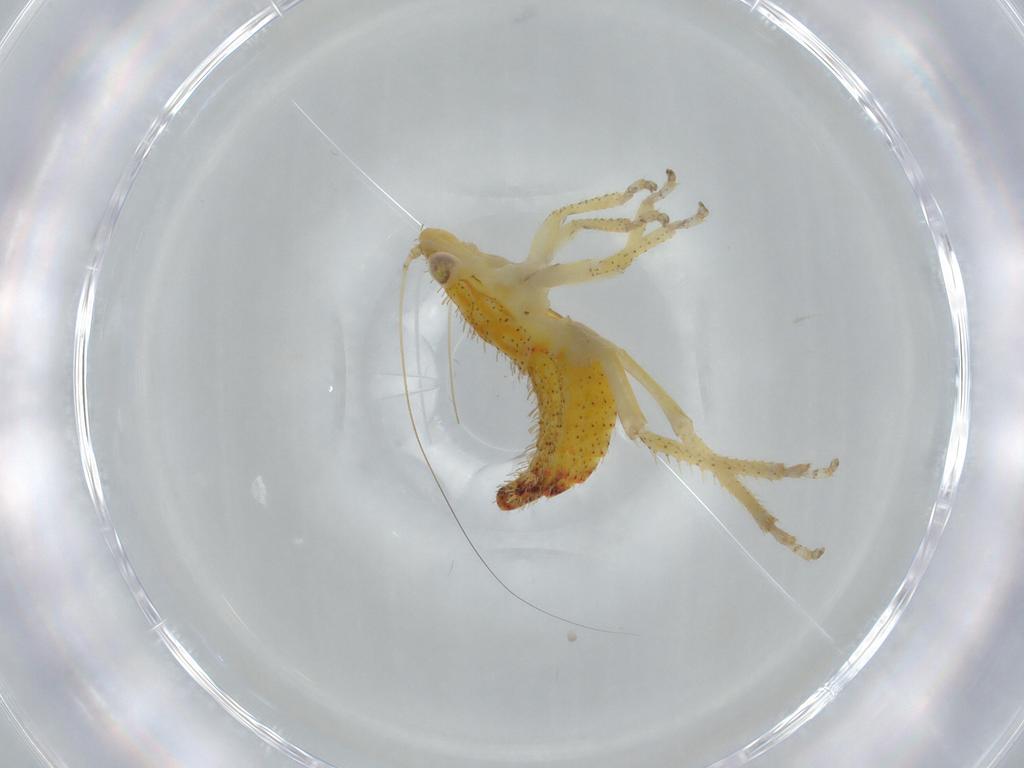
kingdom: Animalia
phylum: Arthropoda
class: Insecta
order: Hemiptera
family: Cicadellidae
